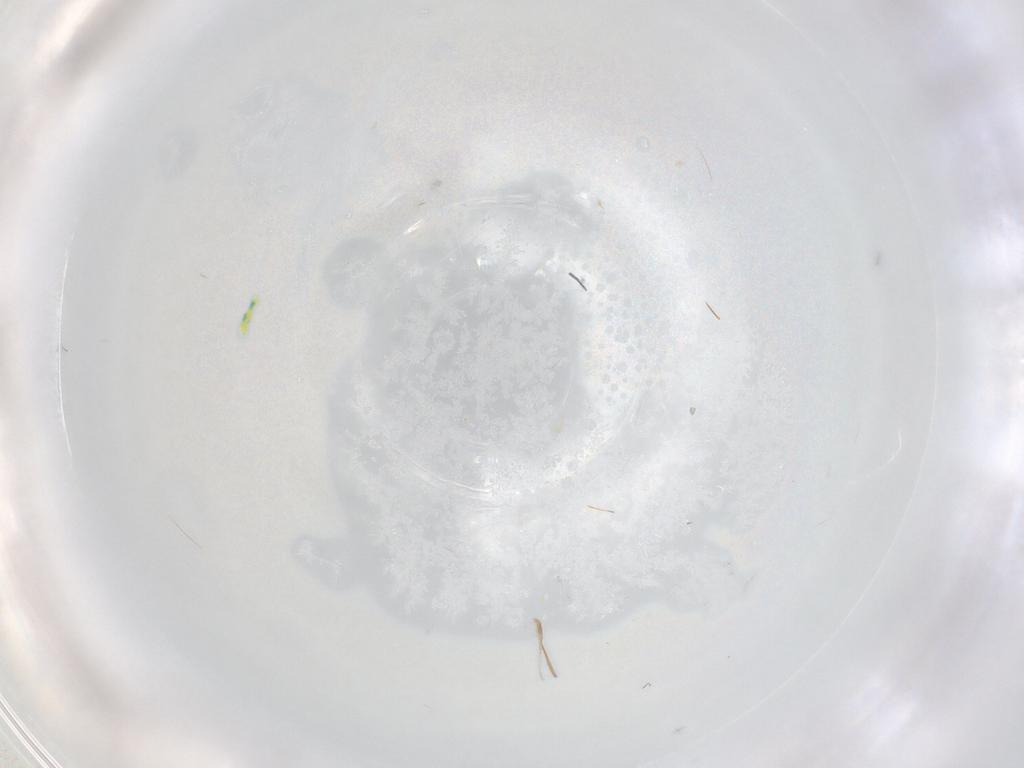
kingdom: Animalia
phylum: Arthropoda
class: Insecta
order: Hymenoptera
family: Platygastridae
